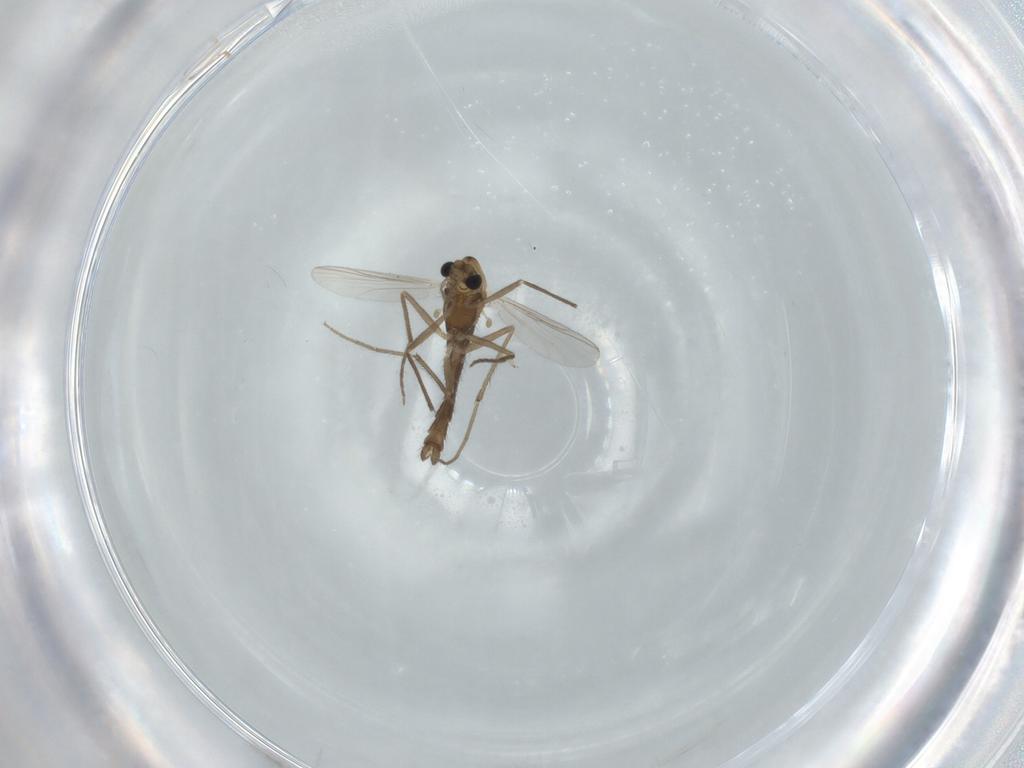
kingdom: Animalia
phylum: Arthropoda
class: Insecta
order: Diptera
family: Chironomidae
